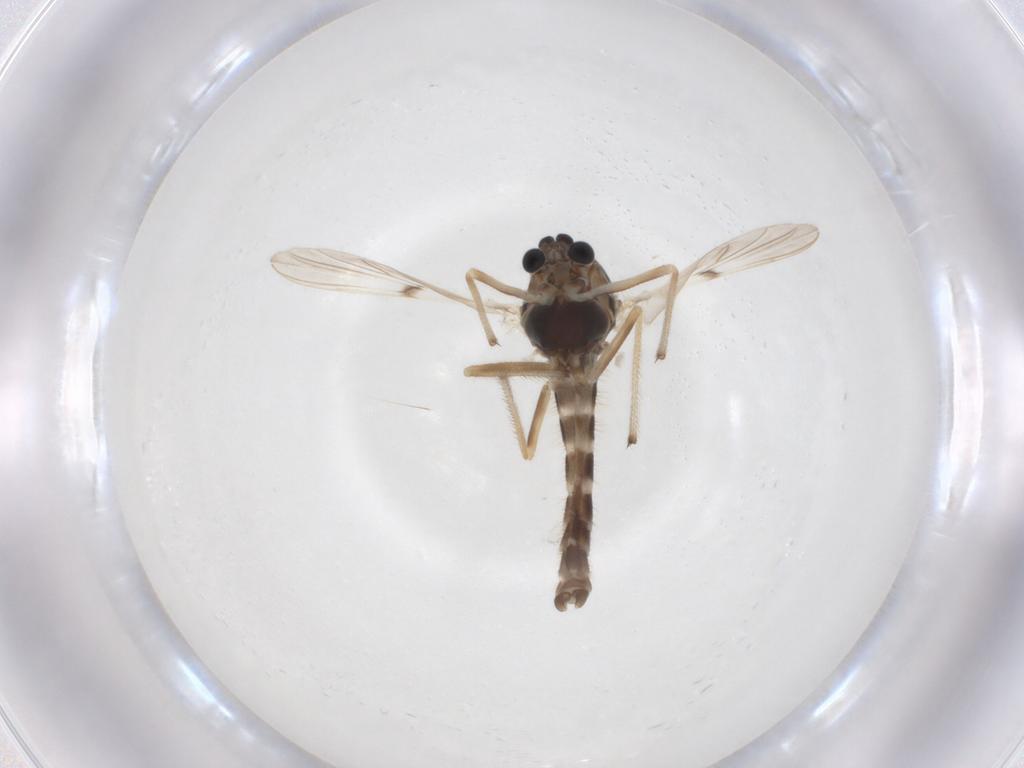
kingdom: Animalia
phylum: Arthropoda
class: Insecta
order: Diptera
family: Chironomidae
